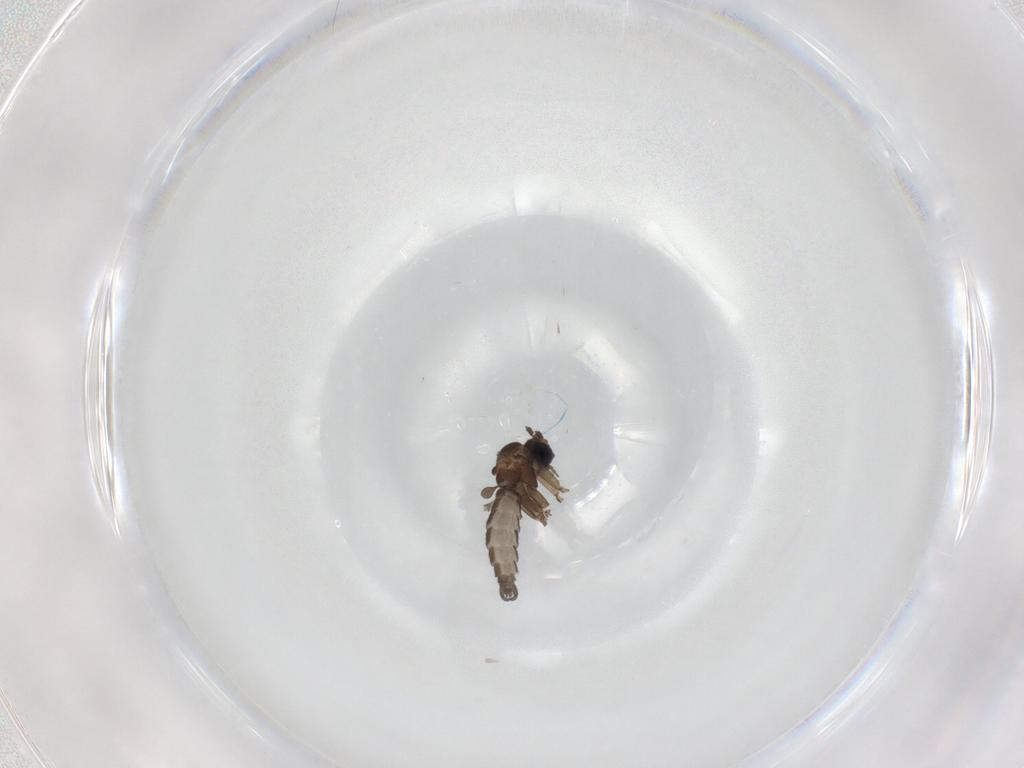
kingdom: Animalia
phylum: Arthropoda
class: Insecta
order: Diptera
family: Sciaridae
